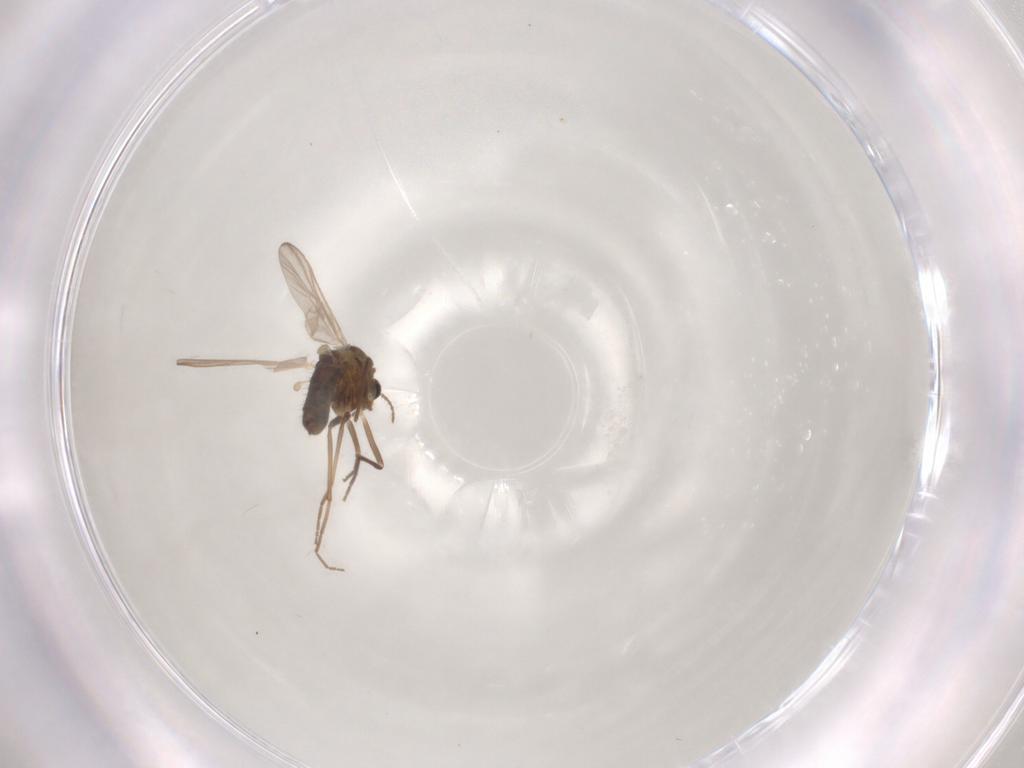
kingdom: Animalia
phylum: Arthropoda
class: Insecta
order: Diptera
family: Chironomidae
